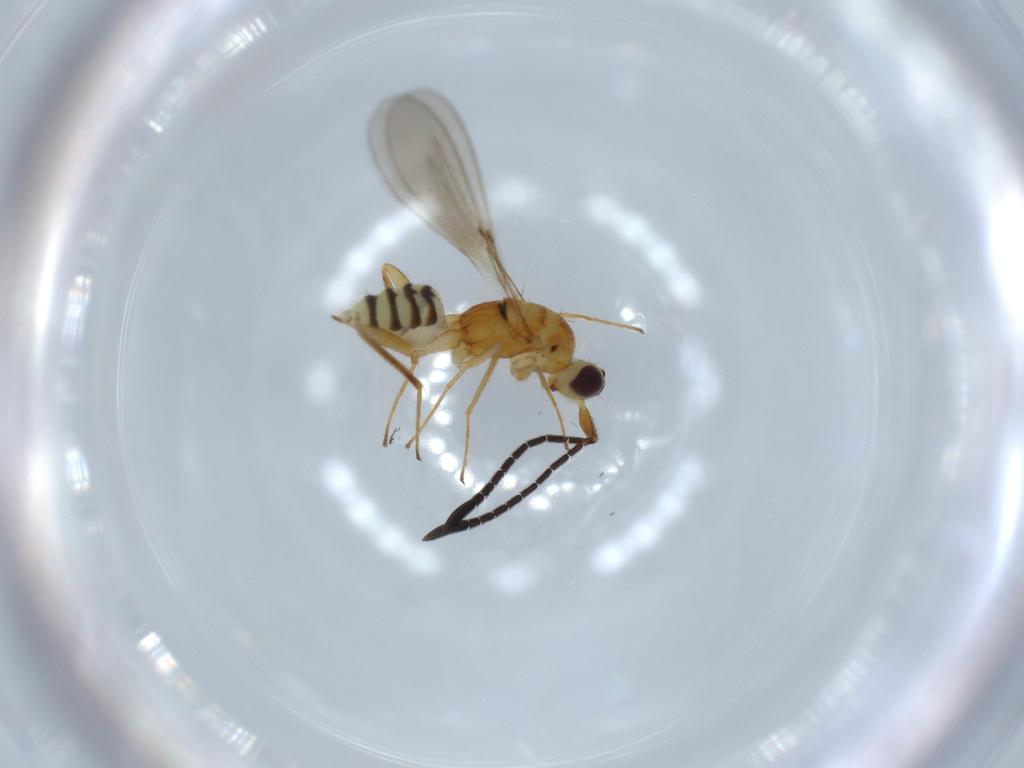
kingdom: Animalia
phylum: Arthropoda
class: Insecta
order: Hymenoptera
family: Mymaridae
